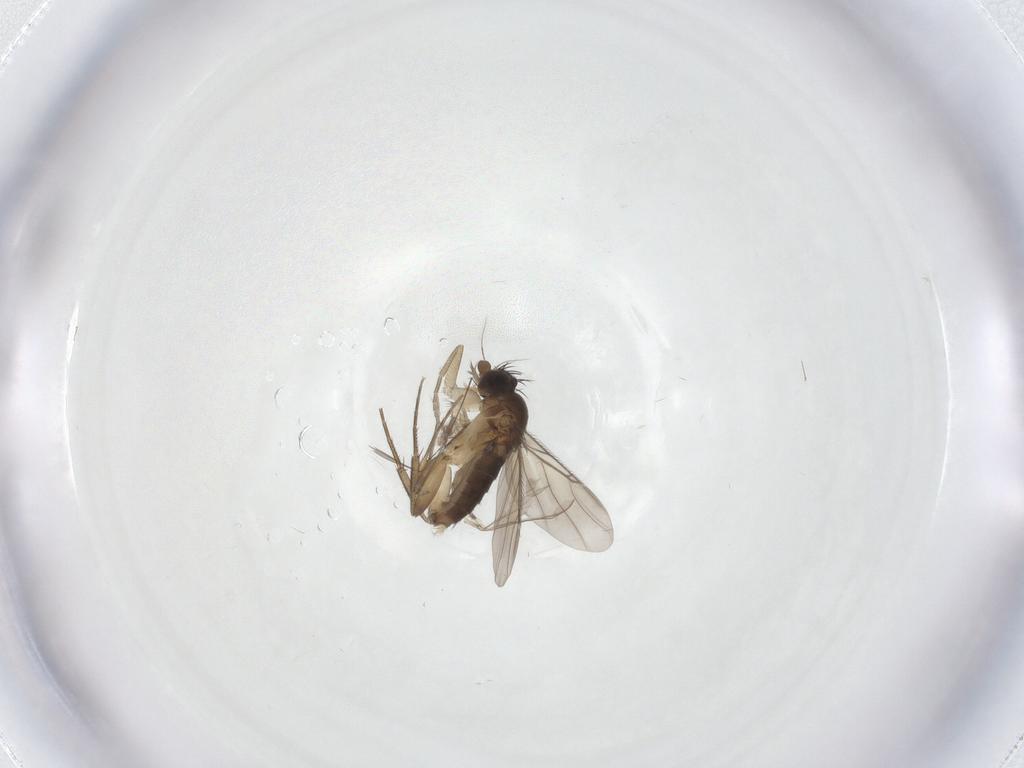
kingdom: Animalia
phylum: Arthropoda
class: Insecta
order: Diptera
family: Phoridae
